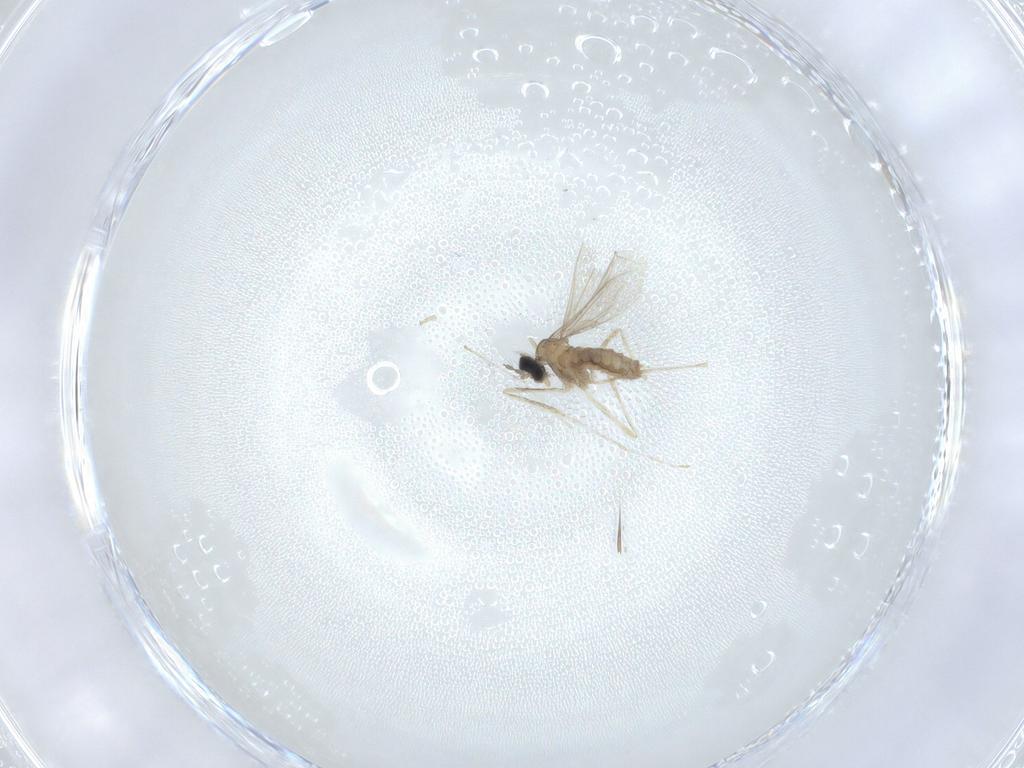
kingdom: Animalia
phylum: Arthropoda
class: Insecta
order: Diptera
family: Cecidomyiidae
